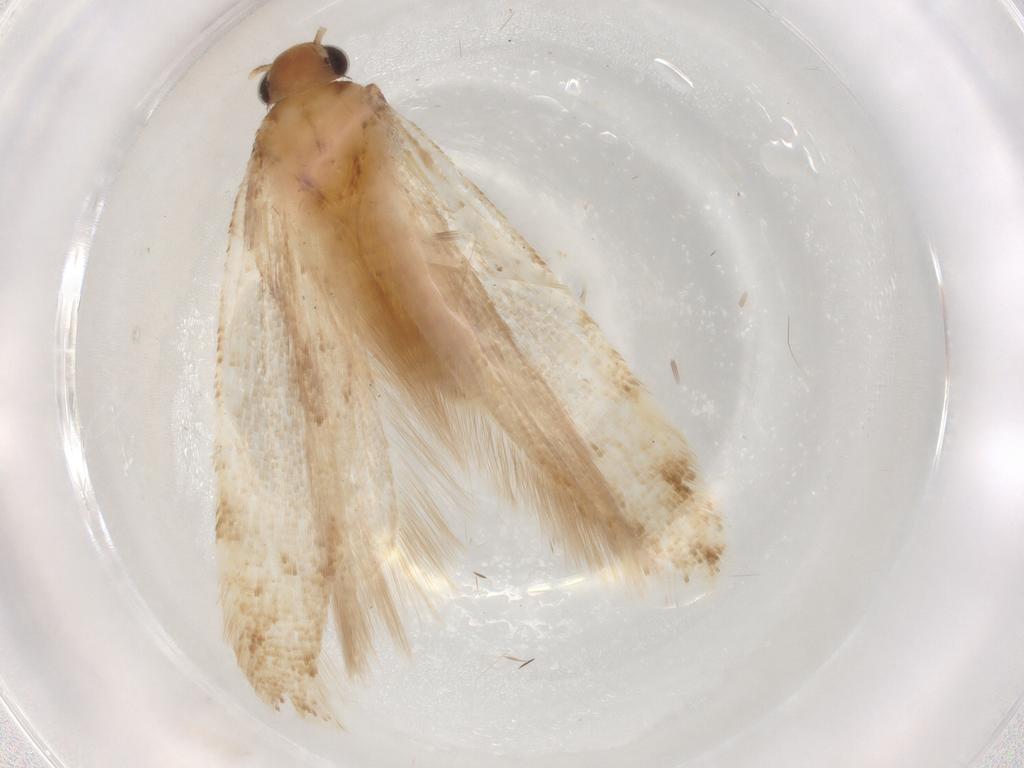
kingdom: Animalia
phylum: Arthropoda
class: Insecta
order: Lepidoptera
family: Gelechiidae
